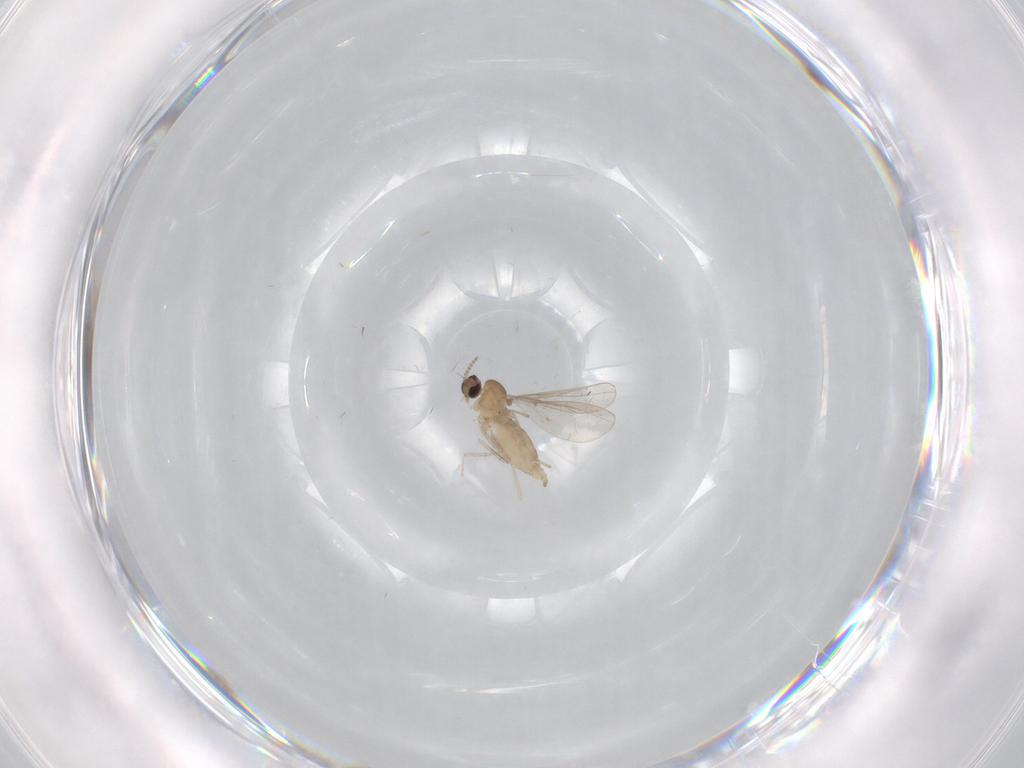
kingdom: Animalia
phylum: Arthropoda
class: Insecta
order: Diptera
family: Cecidomyiidae
